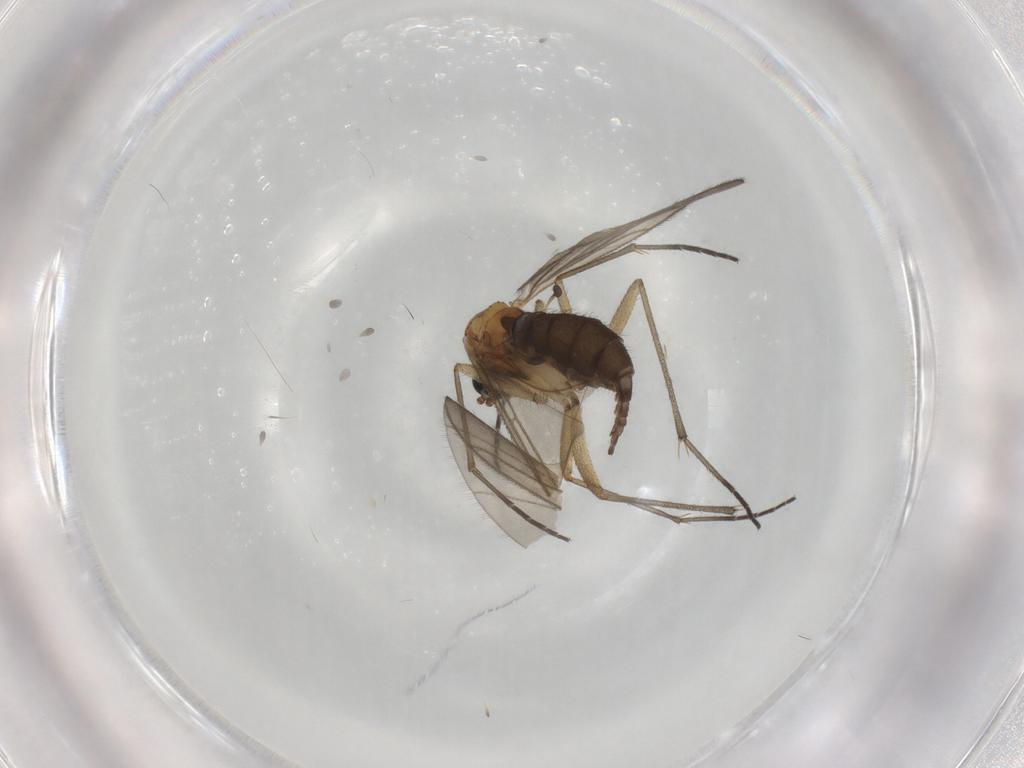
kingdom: Animalia
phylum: Arthropoda
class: Insecta
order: Diptera
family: Sciaridae
